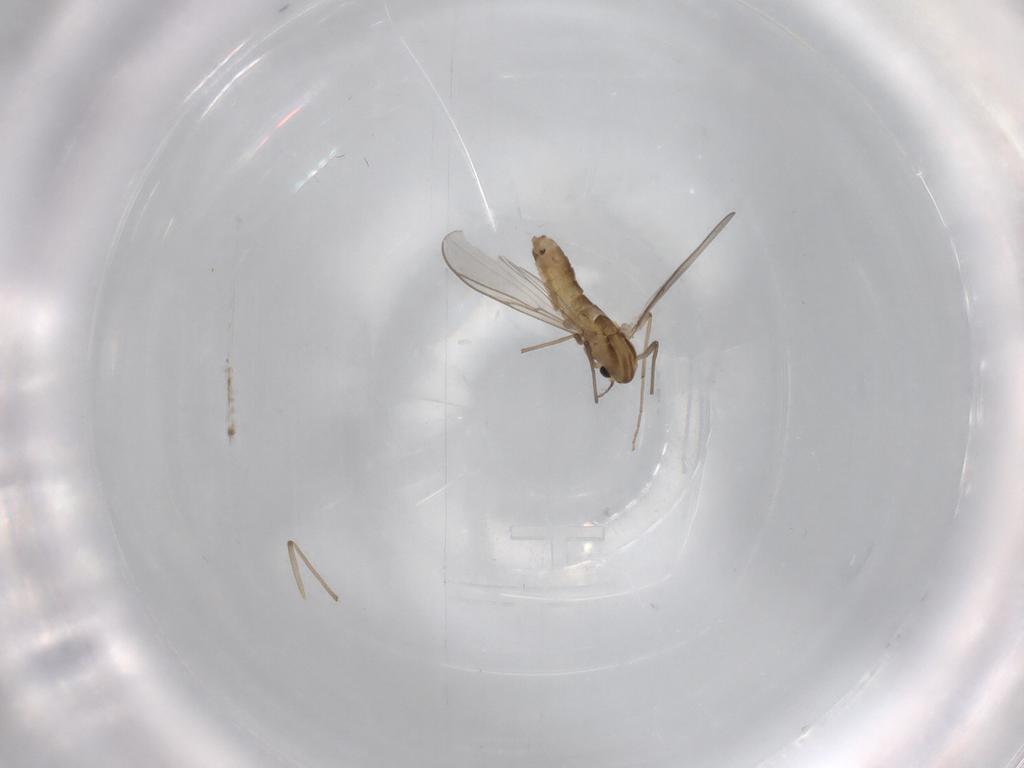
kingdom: Animalia
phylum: Arthropoda
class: Insecta
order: Diptera
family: Chironomidae
